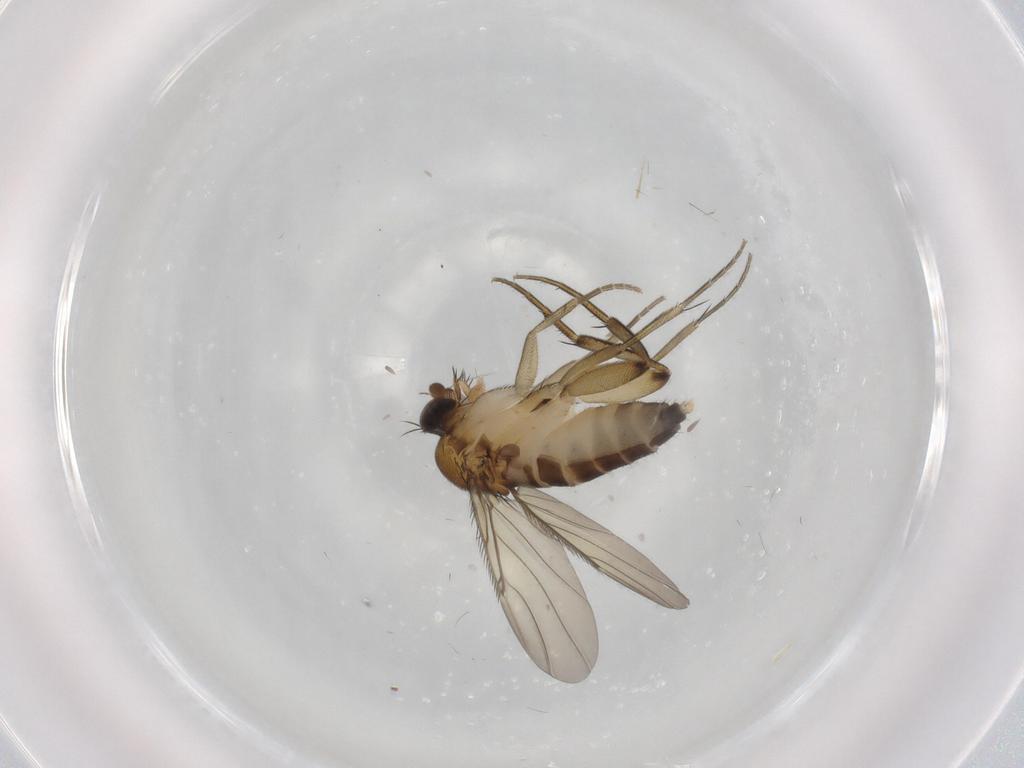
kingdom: Animalia
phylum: Arthropoda
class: Insecta
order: Diptera
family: Phoridae
